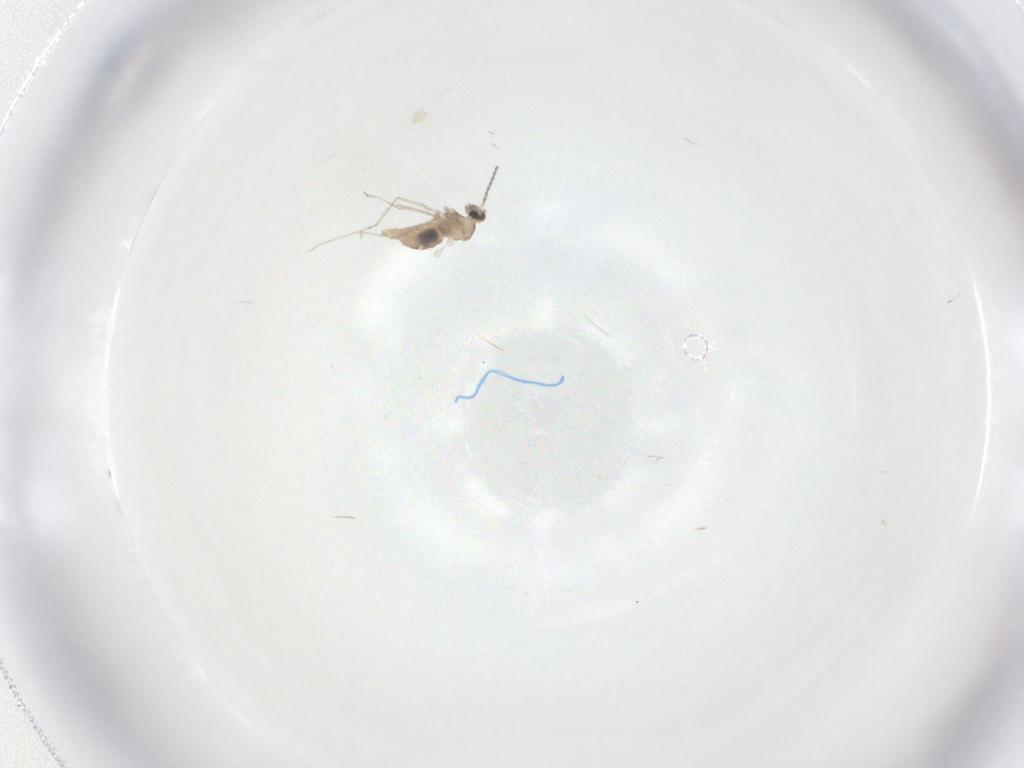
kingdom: Animalia
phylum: Arthropoda
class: Insecta
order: Diptera
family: Cecidomyiidae
